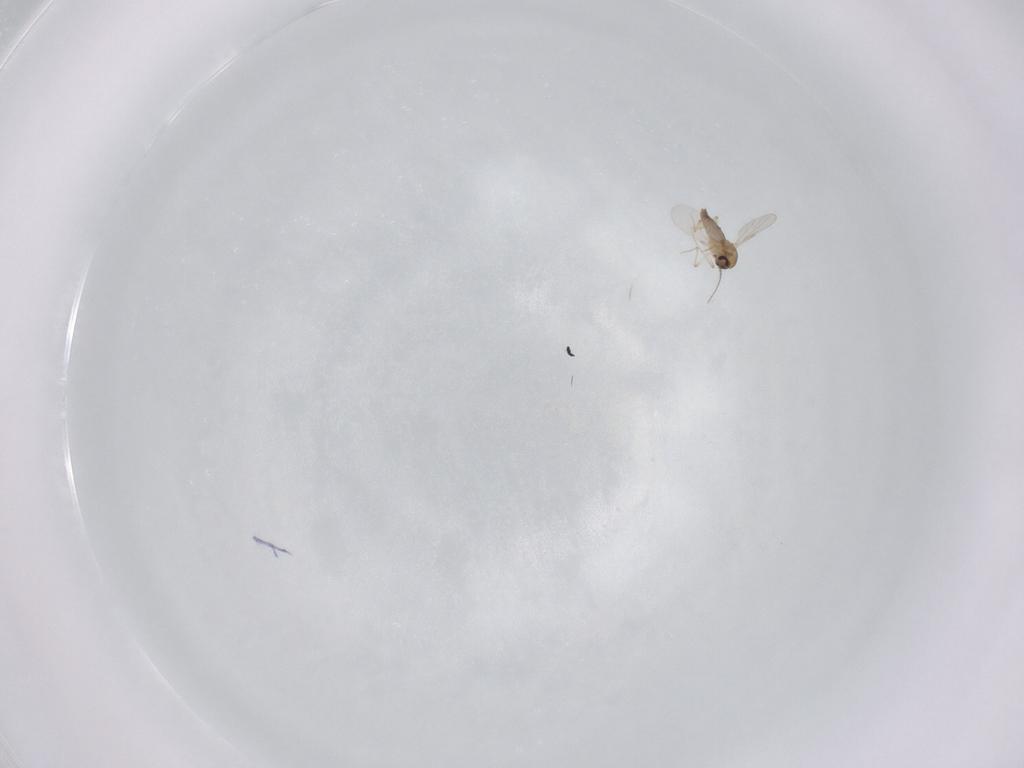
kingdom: Animalia
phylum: Arthropoda
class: Insecta
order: Diptera
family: Ceratopogonidae
